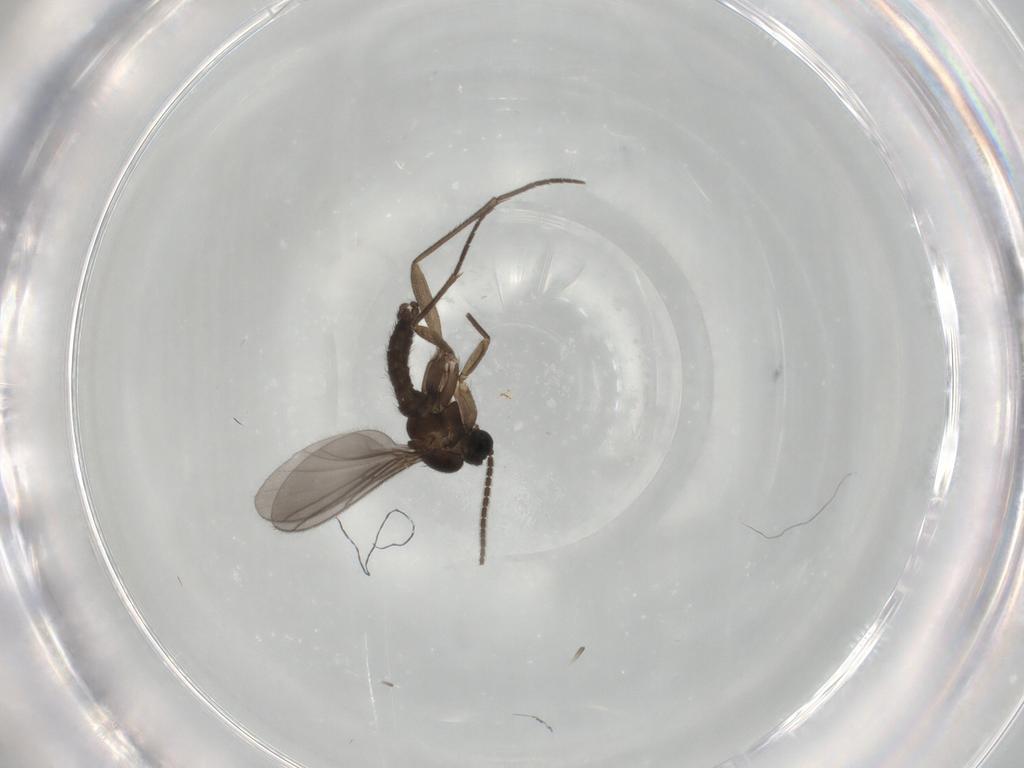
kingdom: Animalia
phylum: Arthropoda
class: Insecta
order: Diptera
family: Sciaridae
